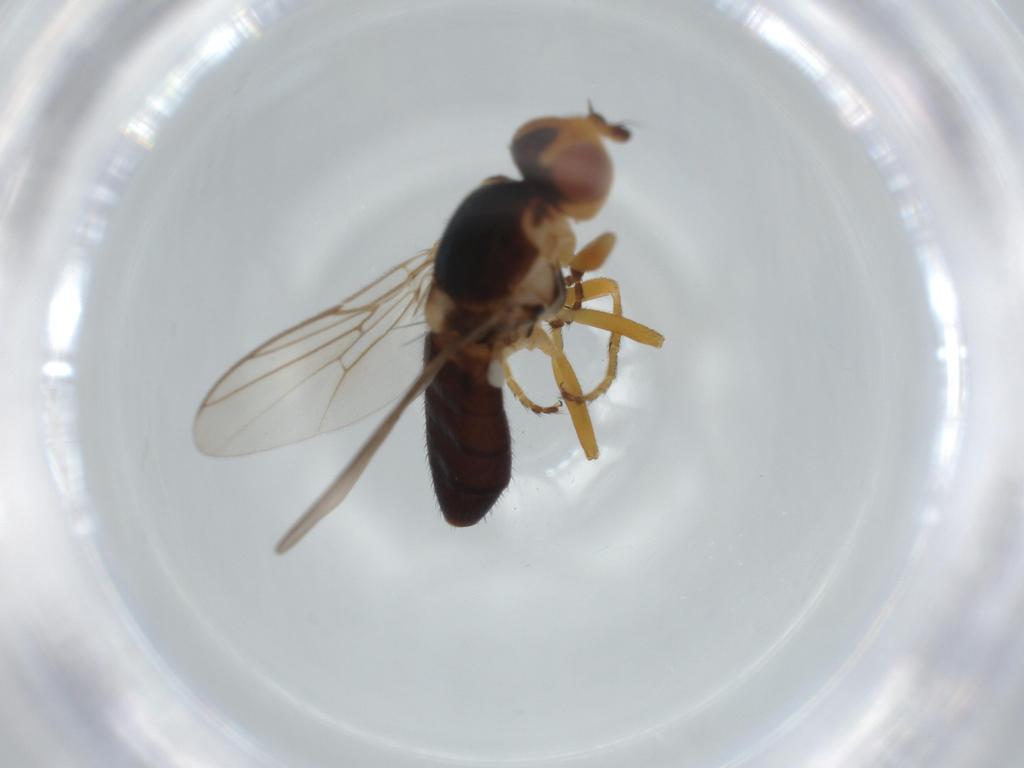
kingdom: Animalia
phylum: Arthropoda
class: Insecta
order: Diptera
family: Chloropidae
